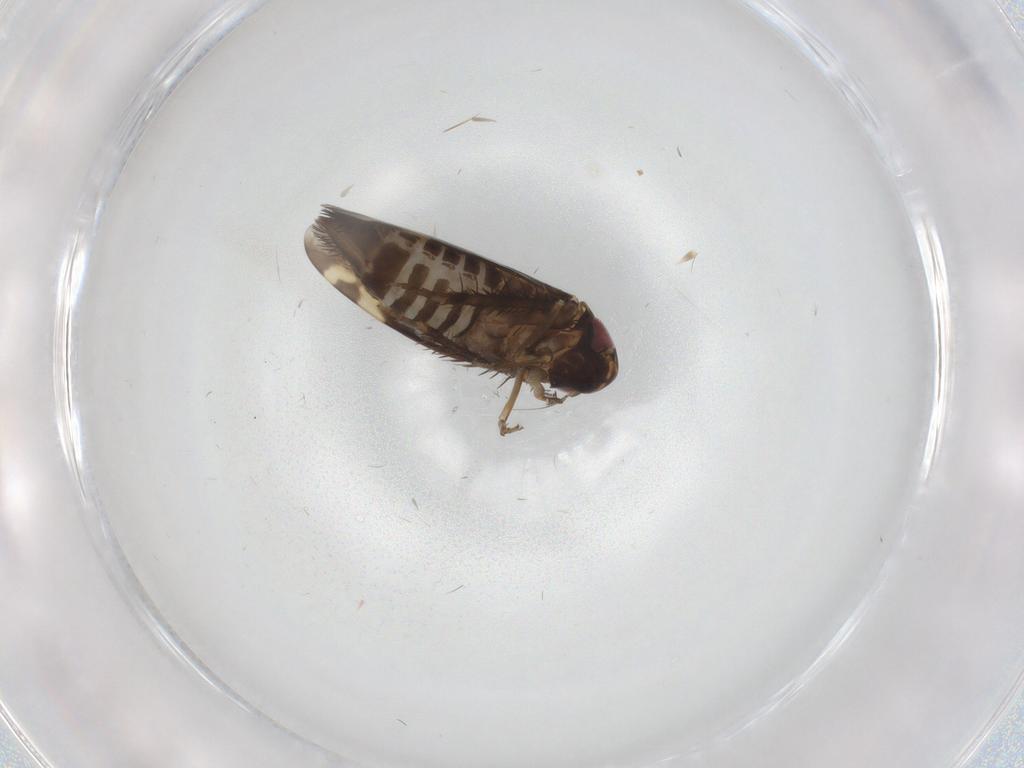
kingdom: Animalia
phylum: Arthropoda
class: Insecta
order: Hemiptera
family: Cicadellidae
